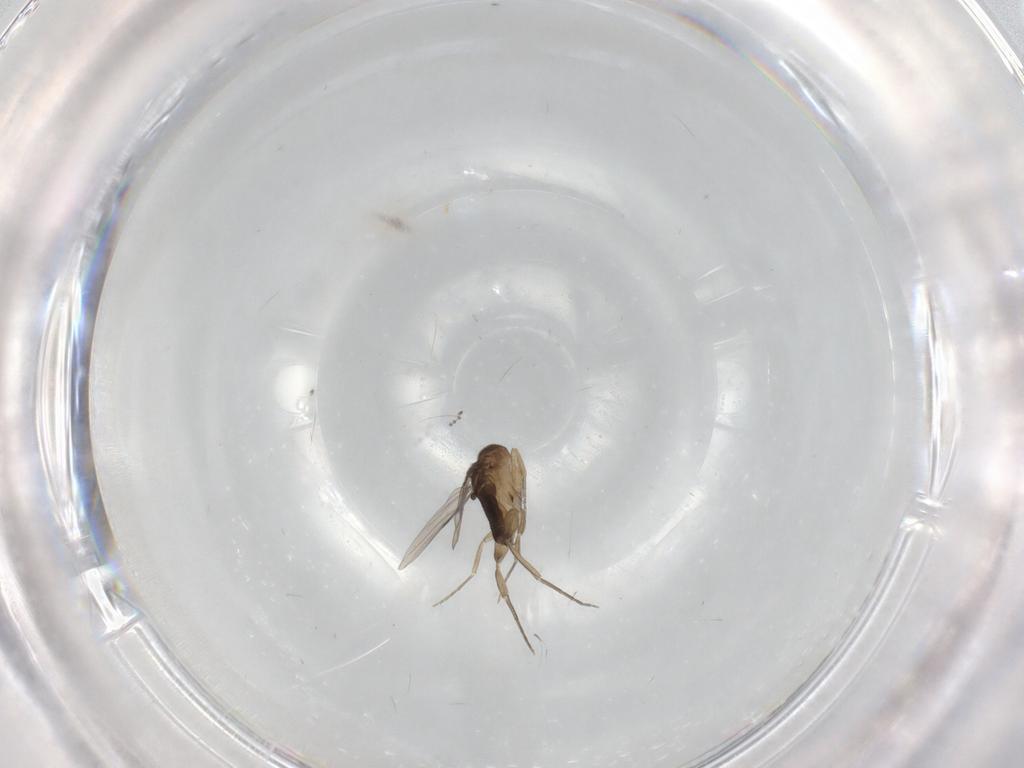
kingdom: Animalia
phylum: Arthropoda
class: Insecta
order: Diptera
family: Phoridae
